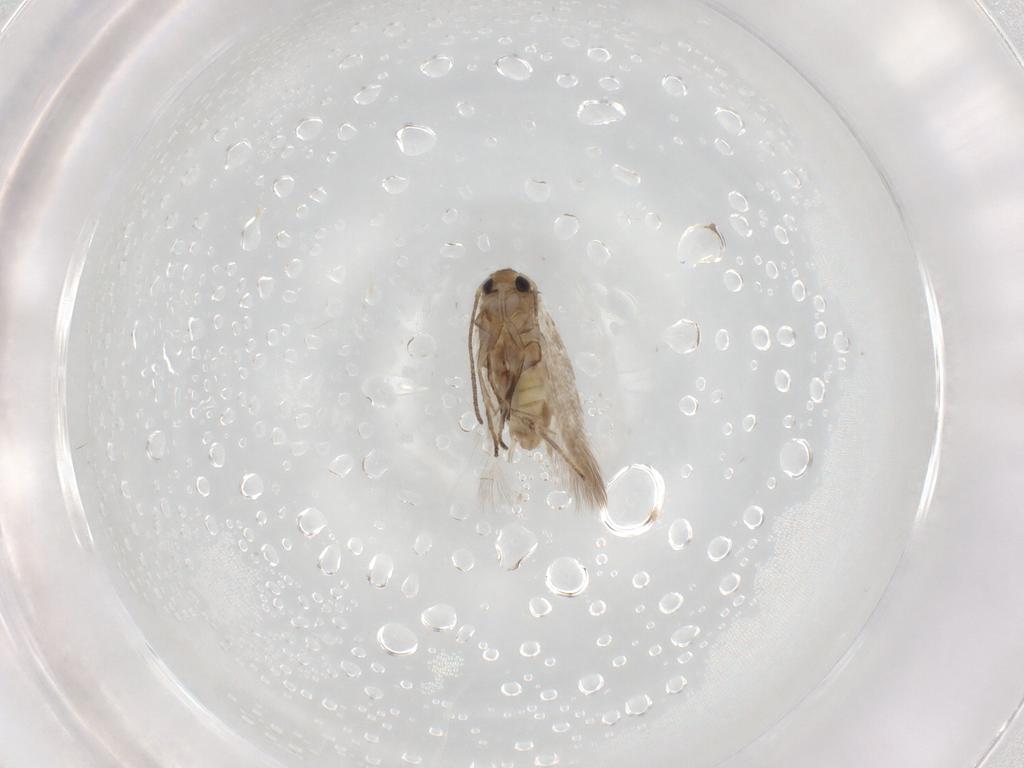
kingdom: Animalia
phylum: Arthropoda
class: Insecta
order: Lepidoptera
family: Nymphalidae
